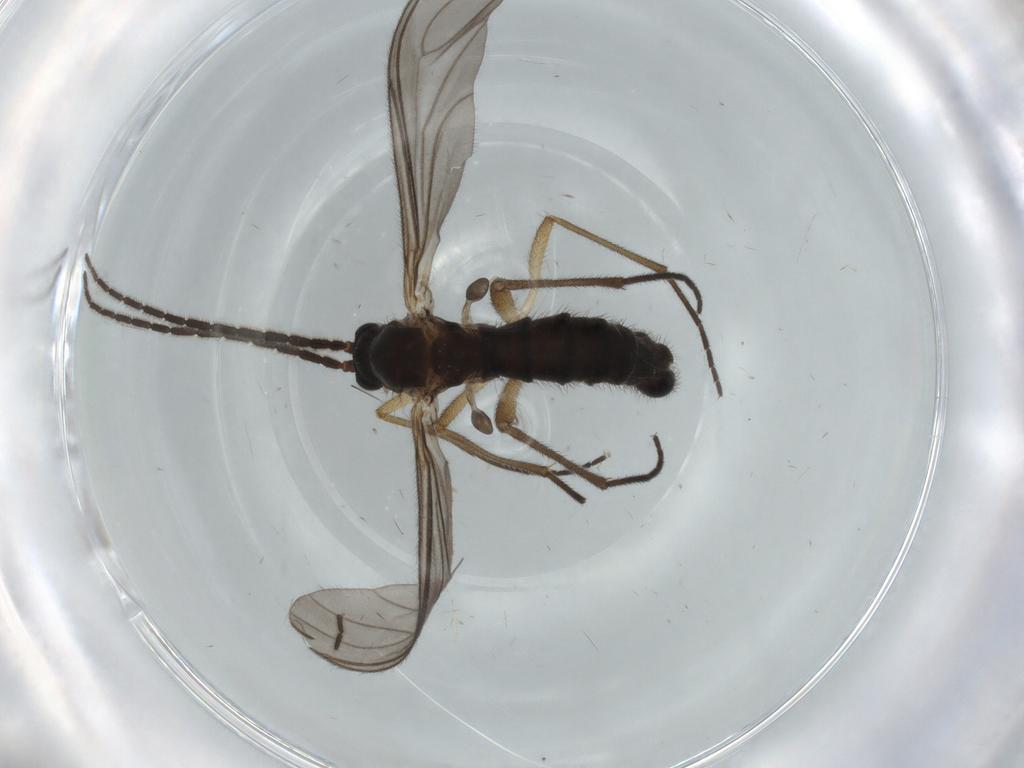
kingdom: Animalia
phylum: Arthropoda
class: Insecta
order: Diptera
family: Sciaridae
